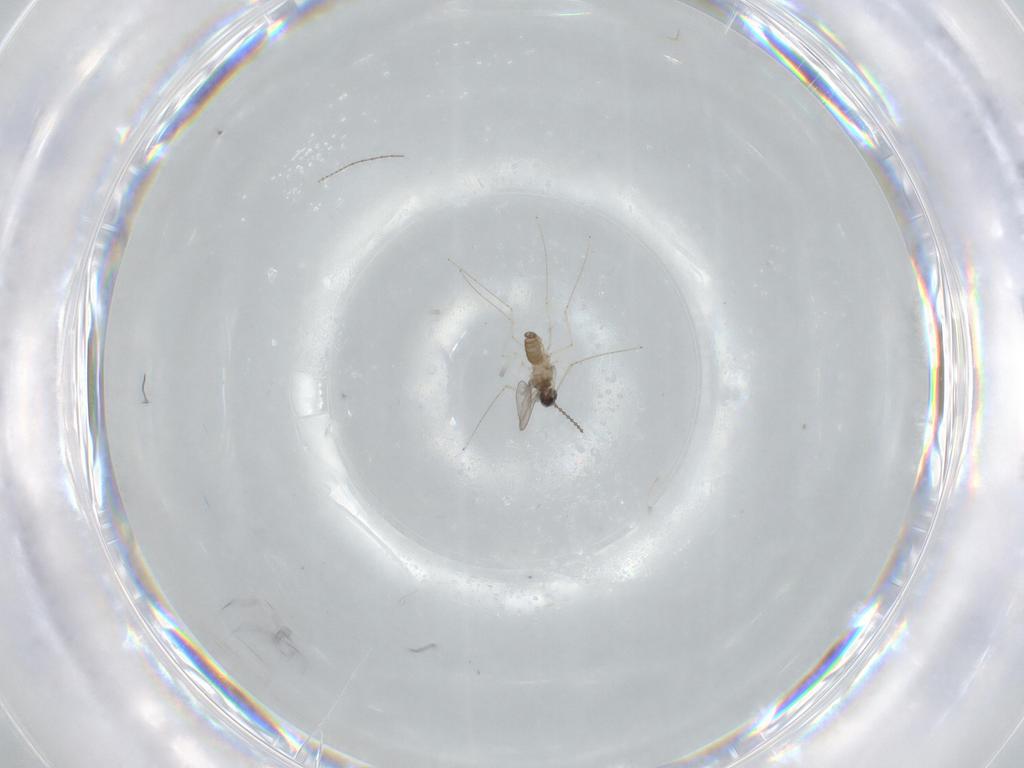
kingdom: Animalia
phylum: Arthropoda
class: Insecta
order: Diptera
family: Cecidomyiidae
